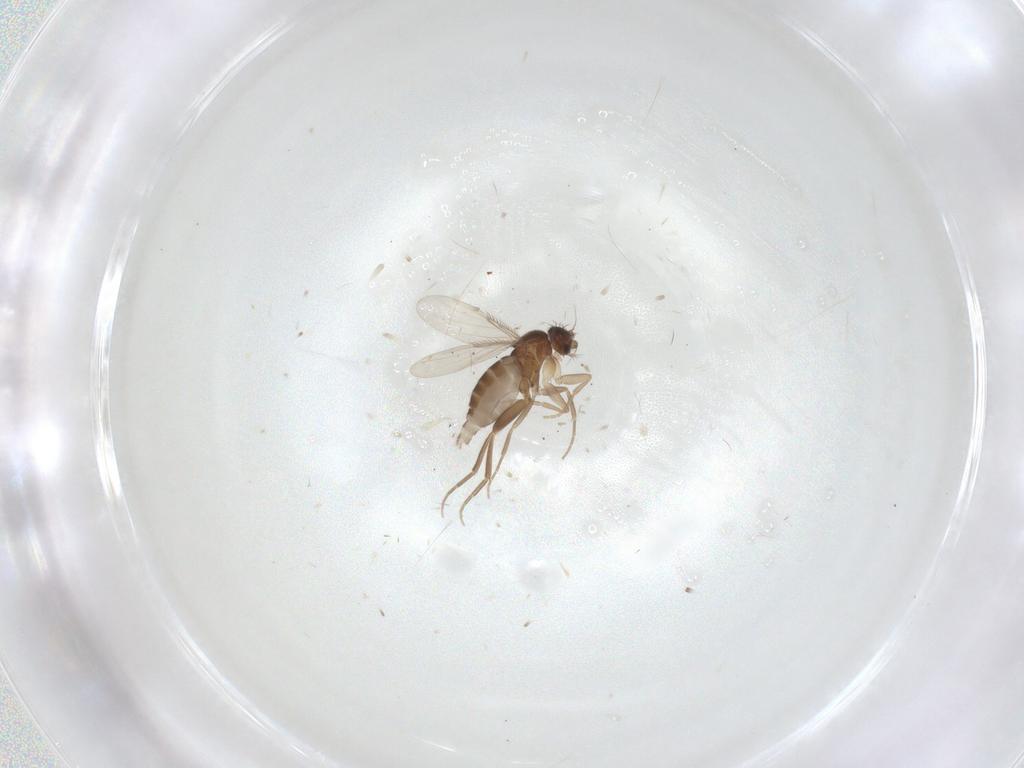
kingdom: Animalia
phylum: Arthropoda
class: Insecta
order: Diptera
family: Phoridae
